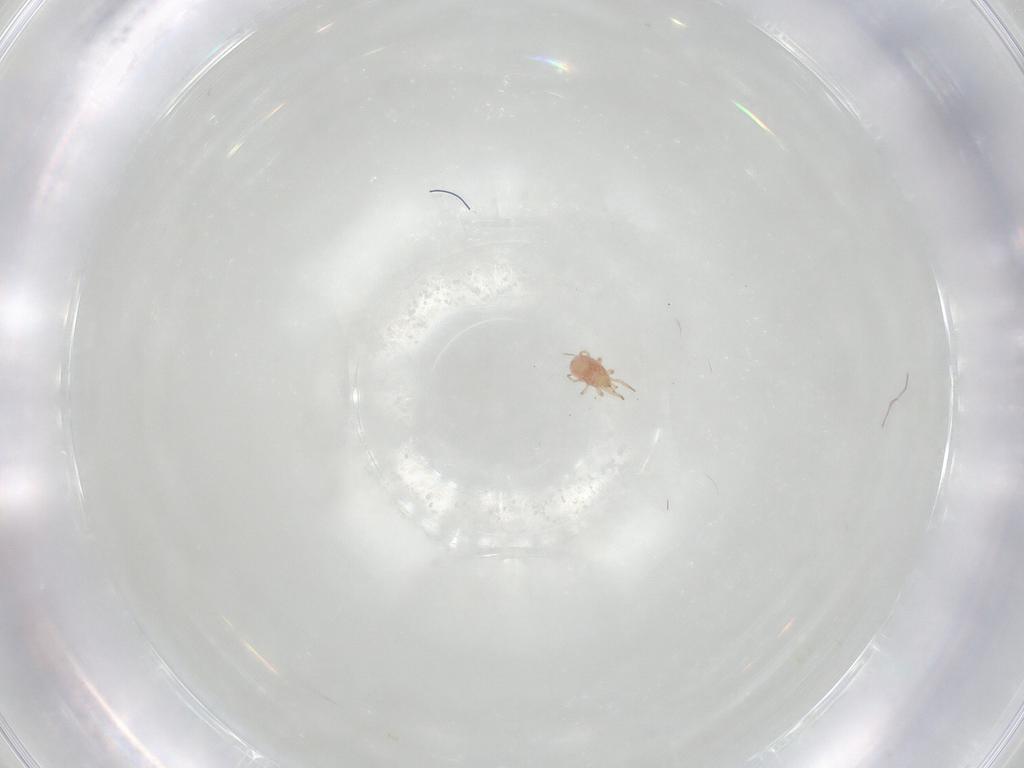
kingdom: Animalia
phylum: Arthropoda
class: Arachnida
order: Mesostigmata
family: Phytoseiidae
